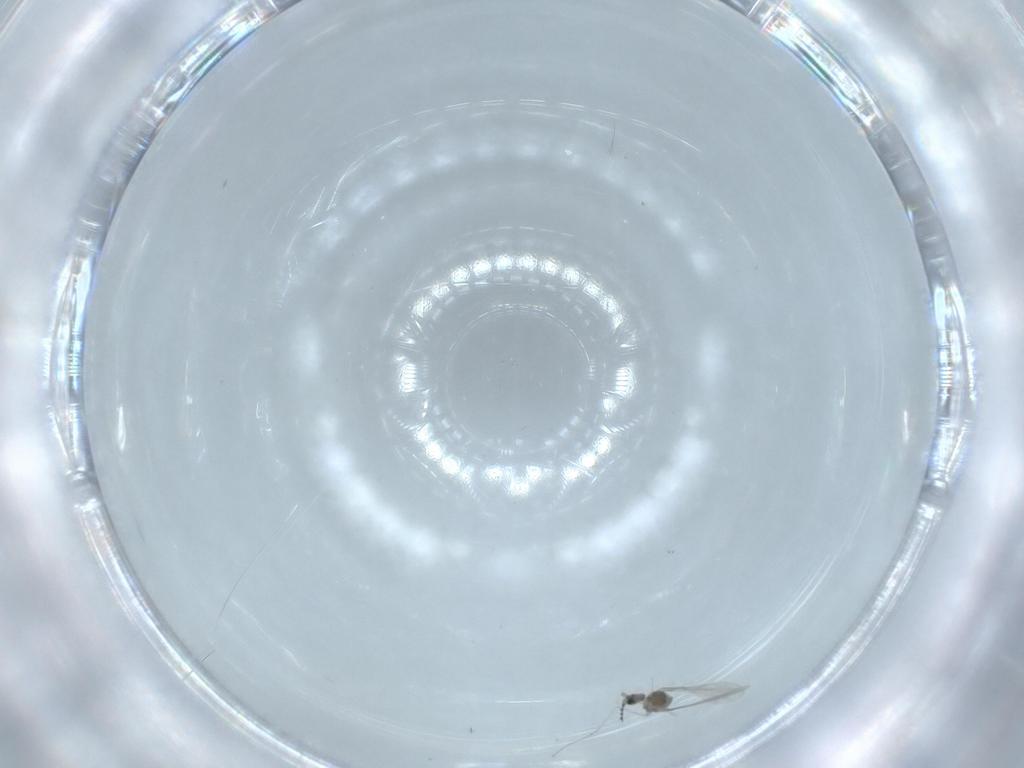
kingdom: Animalia
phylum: Arthropoda
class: Insecta
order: Diptera
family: Cecidomyiidae
